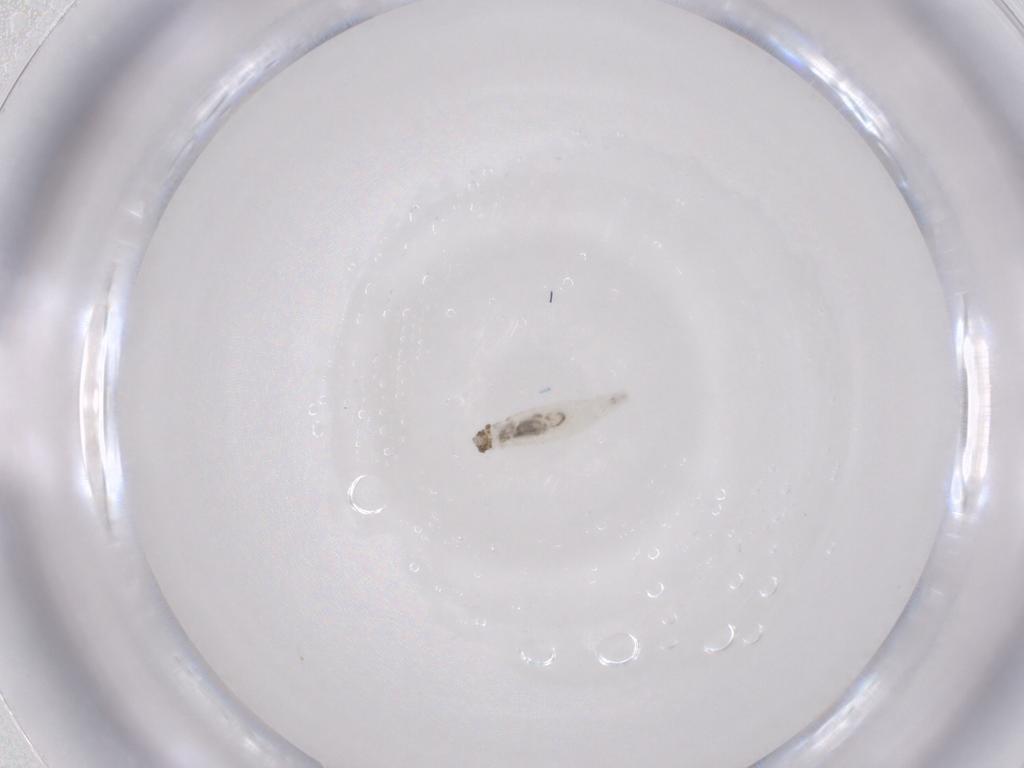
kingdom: Animalia
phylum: Arthropoda
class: Insecta
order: Diptera
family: Drosophilidae
